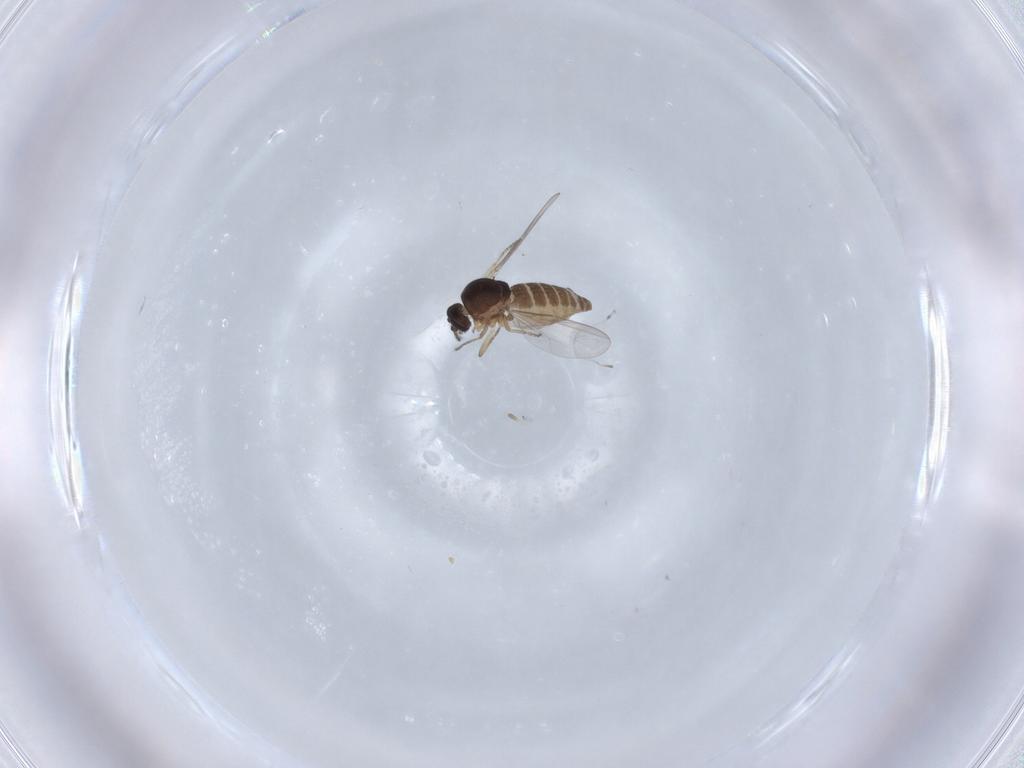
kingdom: Animalia
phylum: Arthropoda
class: Insecta
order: Diptera
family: Ceratopogonidae
